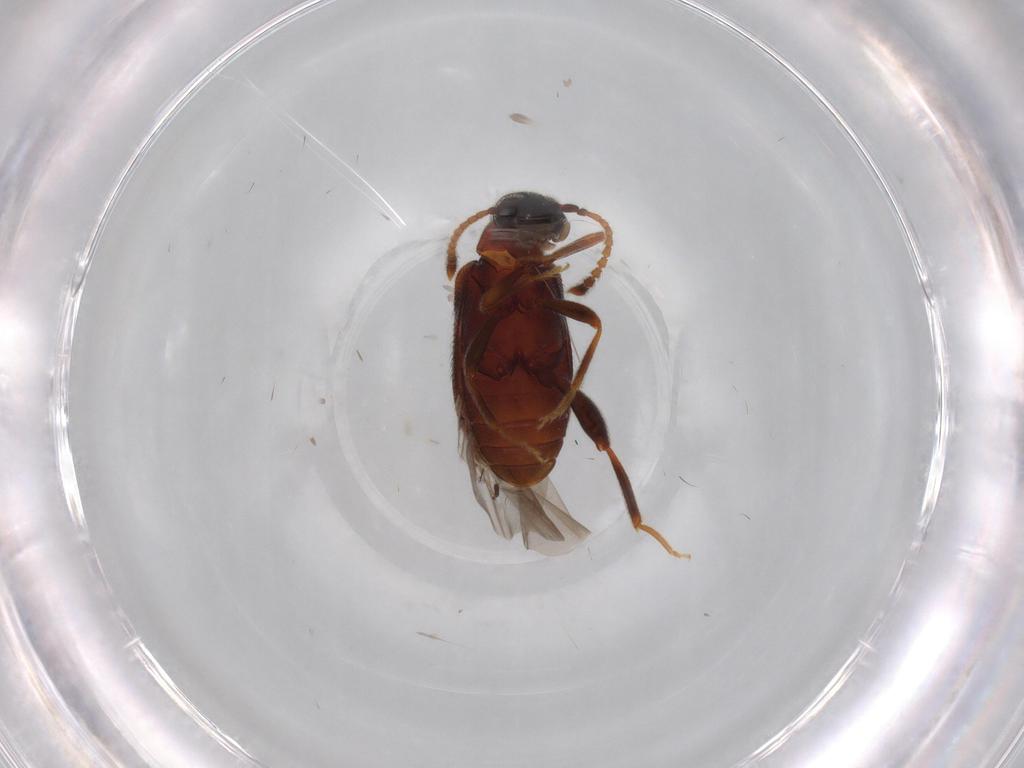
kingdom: Animalia
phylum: Arthropoda
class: Insecta
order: Coleoptera
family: Aderidae
